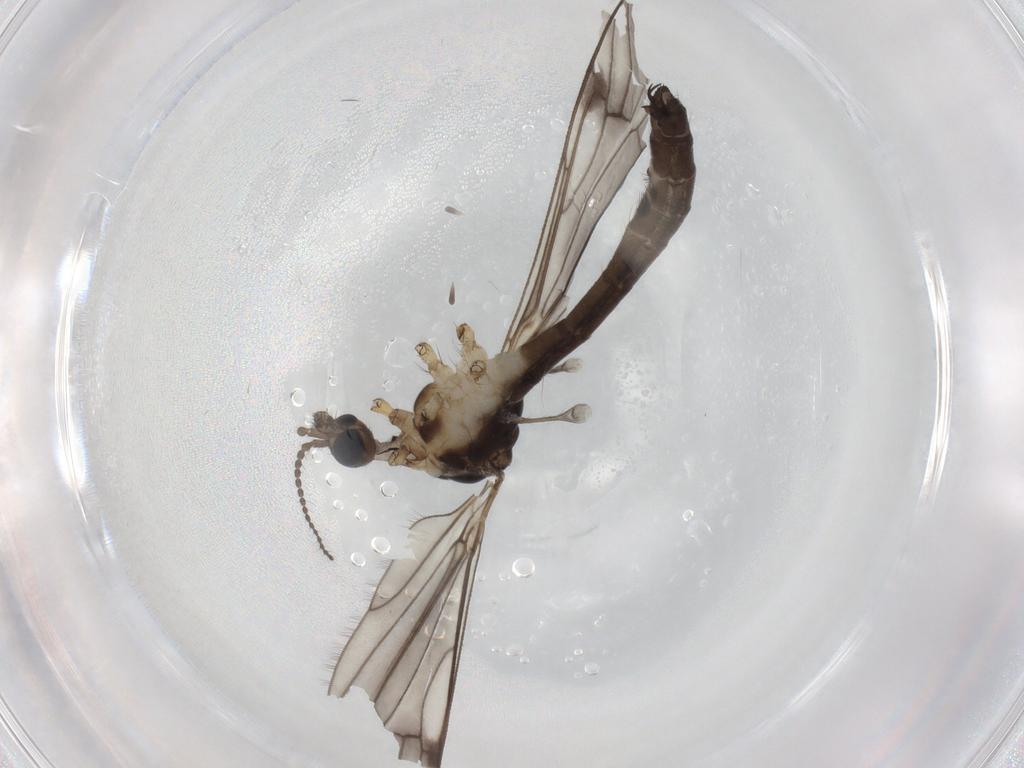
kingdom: Animalia
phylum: Arthropoda
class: Insecta
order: Diptera
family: Limoniidae
